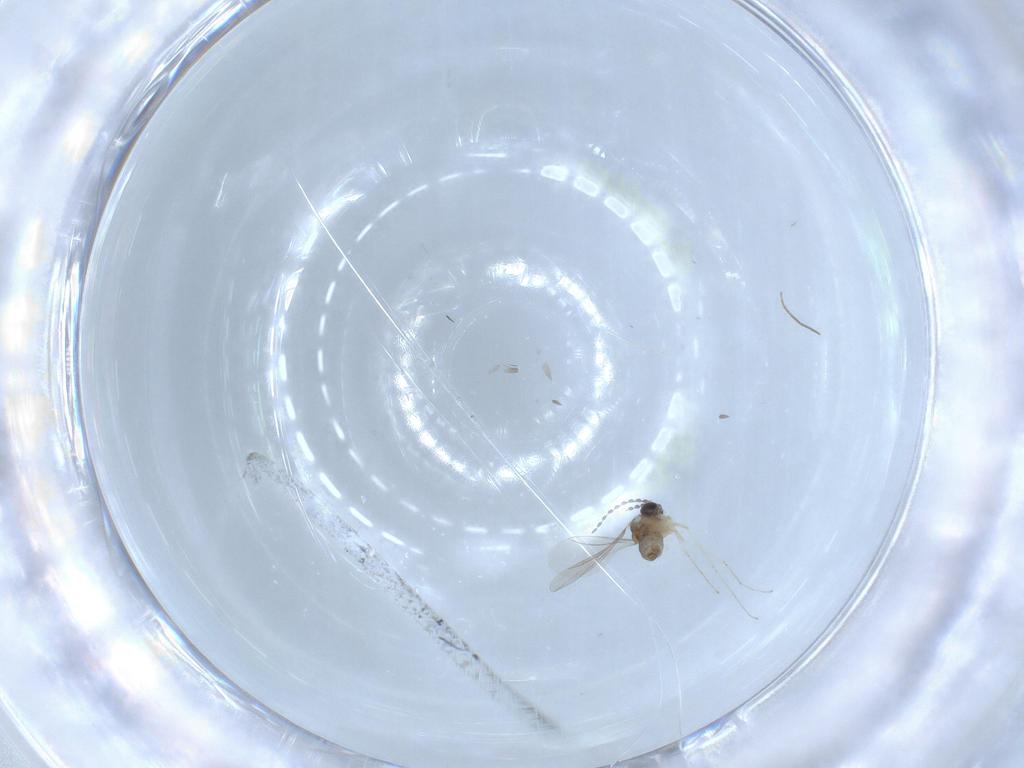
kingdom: Animalia
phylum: Arthropoda
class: Insecta
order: Diptera
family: Cecidomyiidae
